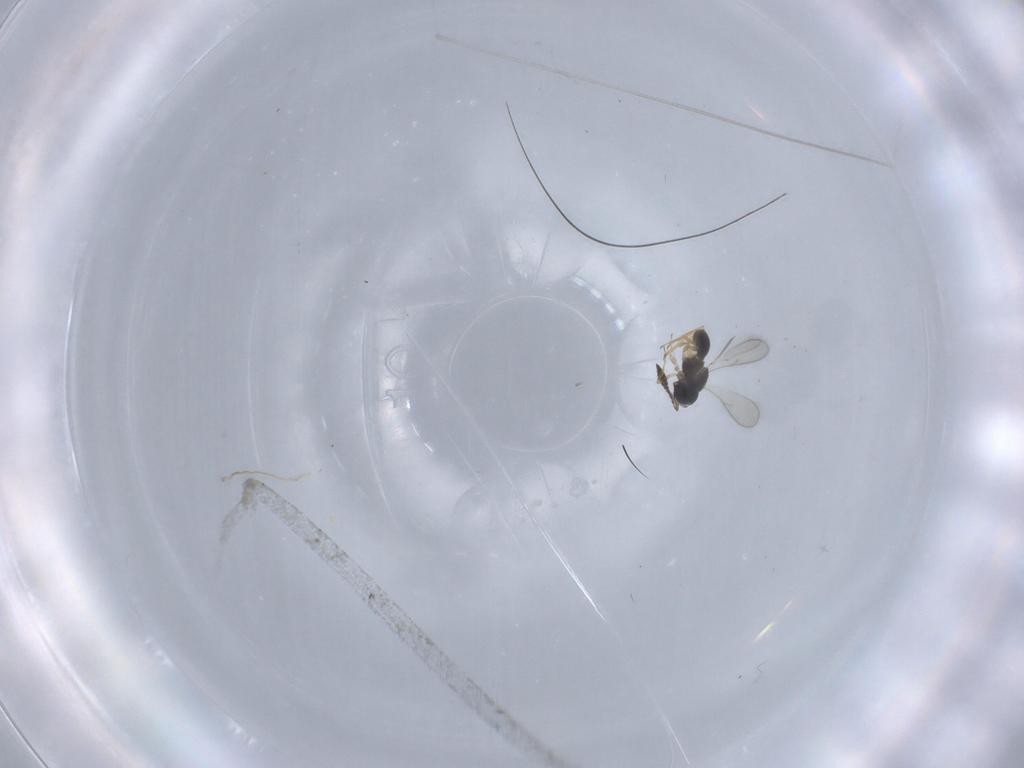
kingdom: Animalia
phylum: Arthropoda
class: Insecta
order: Hymenoptera
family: Scelionidae
